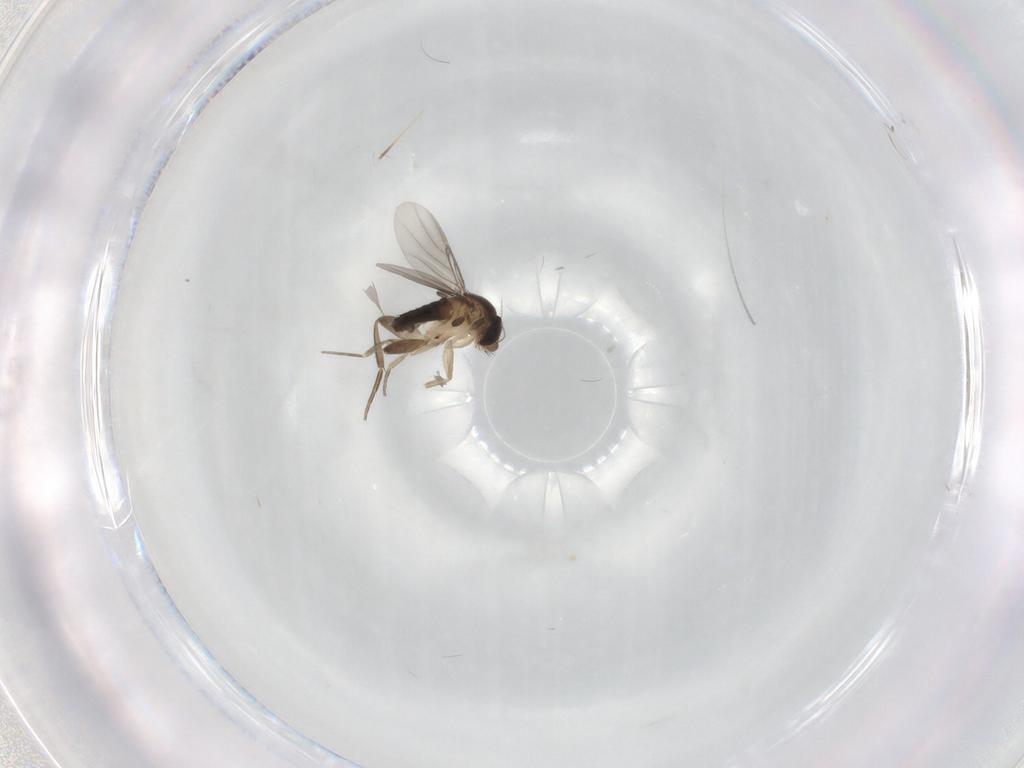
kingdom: Animalia
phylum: Arthropoda
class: Insecta
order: Diptera
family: Phoridae
